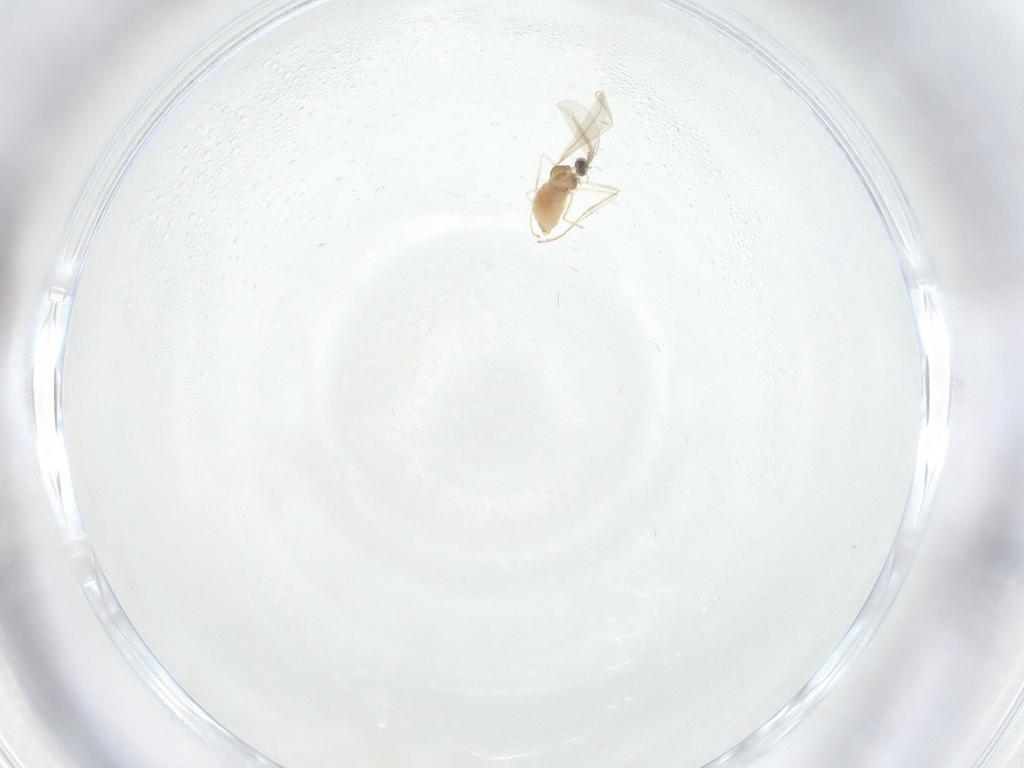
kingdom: Animalia
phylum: Arthropoda
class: Insecta
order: Diptera
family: Cecidomyiidae
